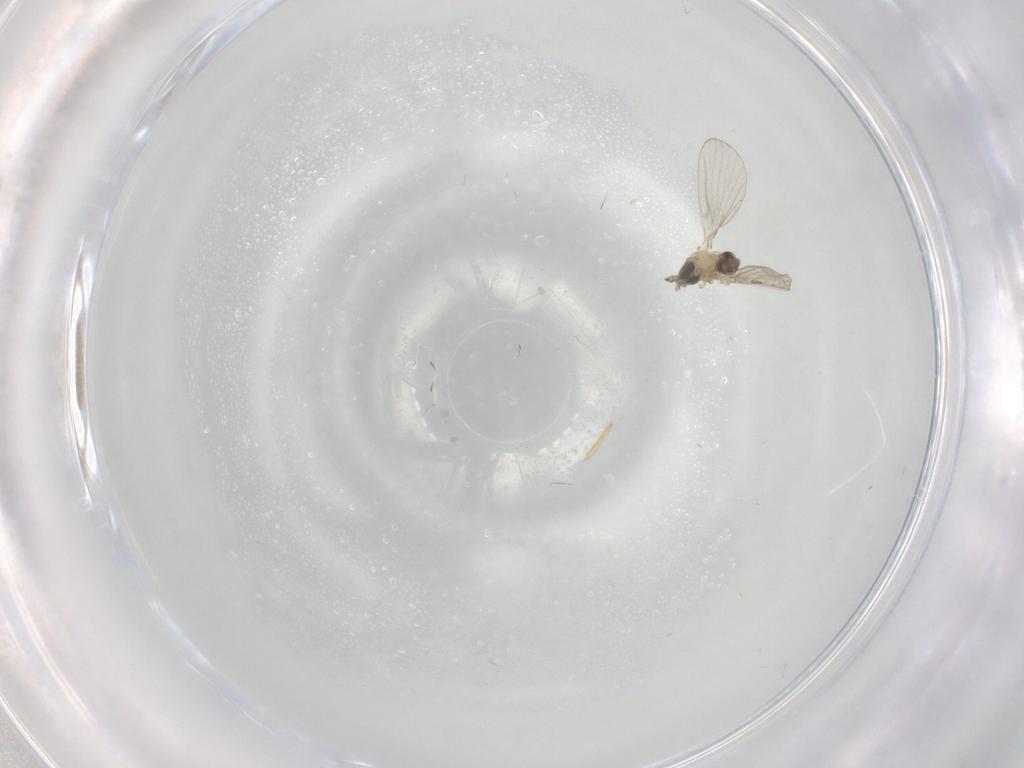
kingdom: Animalia
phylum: Arthropoda
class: Insecta
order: Diptera
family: Psychodidae
